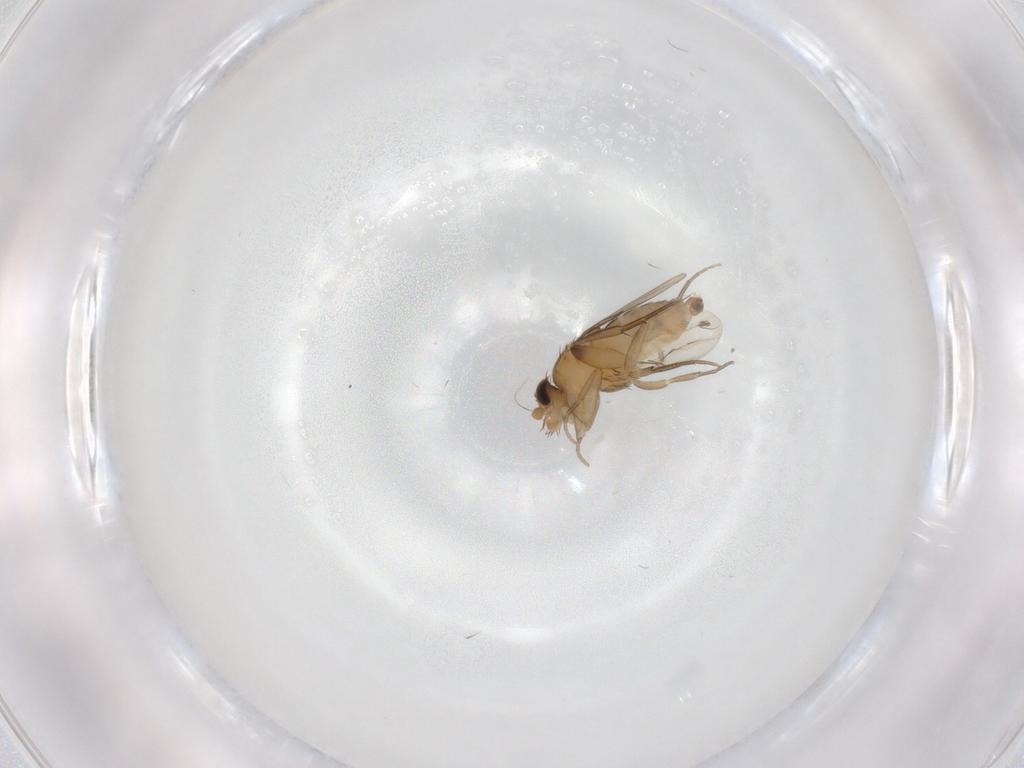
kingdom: Animalia
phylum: Arthropoda
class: Insecta
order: Diptera
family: Phoridae
